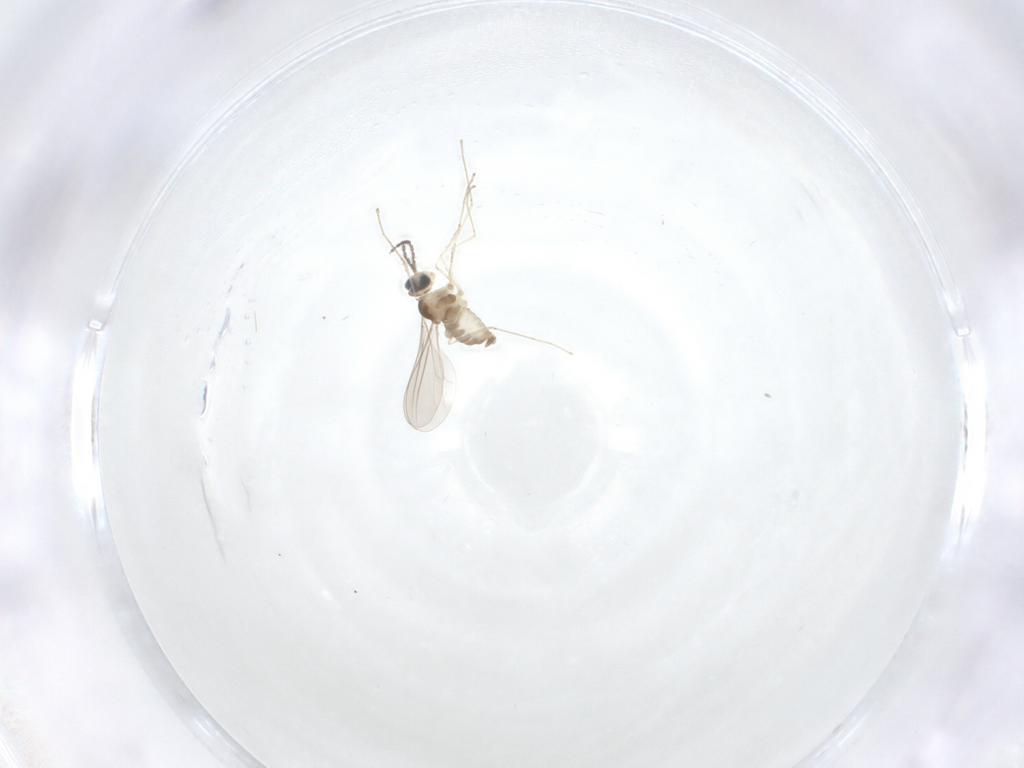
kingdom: Animalia
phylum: Arthropoda
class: Insecta
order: Diptera
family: Cecidomyiidae
